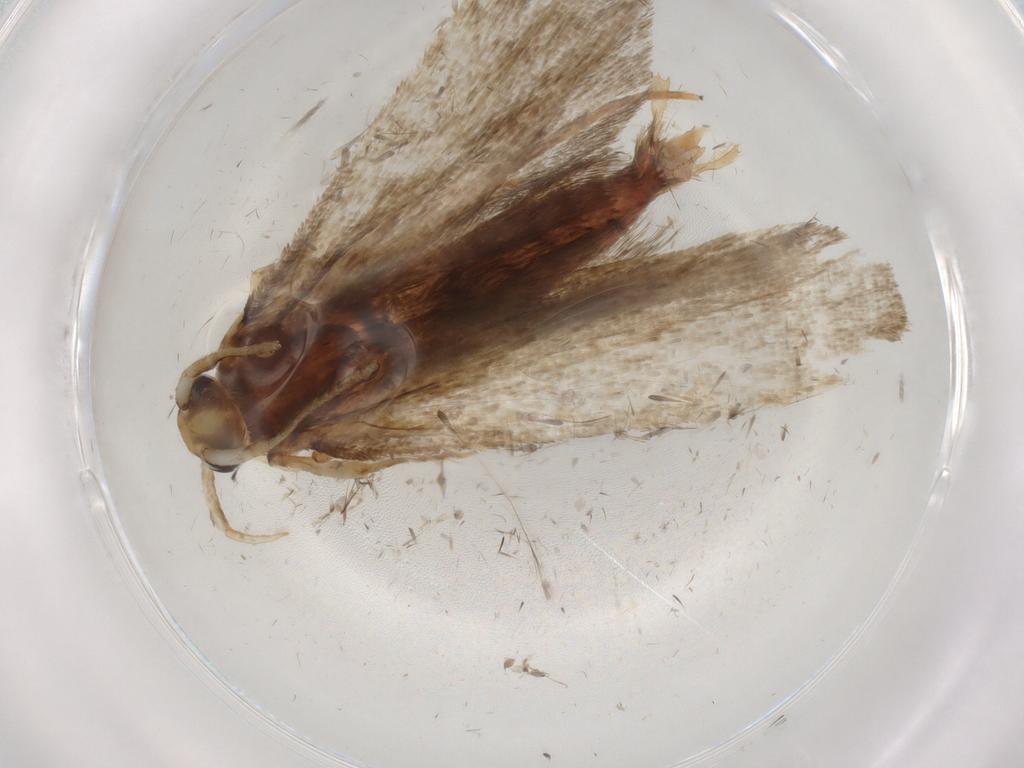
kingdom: Animalia
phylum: Arthropoda
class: Insecta
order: Lepidoptera
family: Autostichidae
